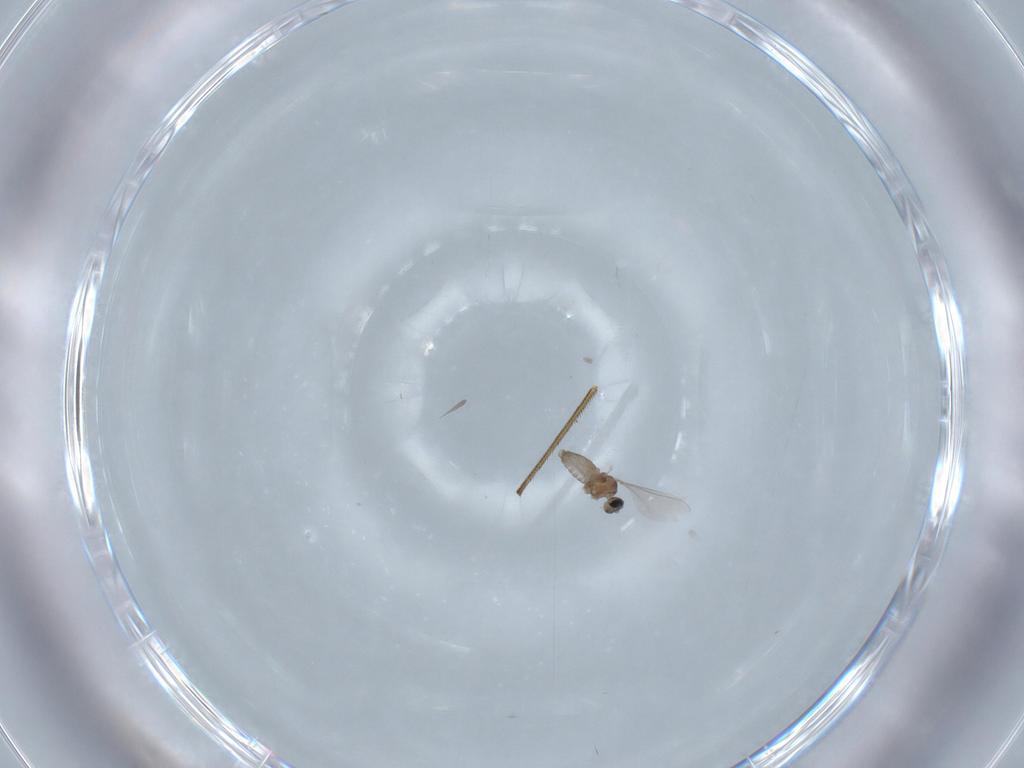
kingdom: Animalia
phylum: Arthropoda
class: Insecta
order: Diptera
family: Dolichopodidae
